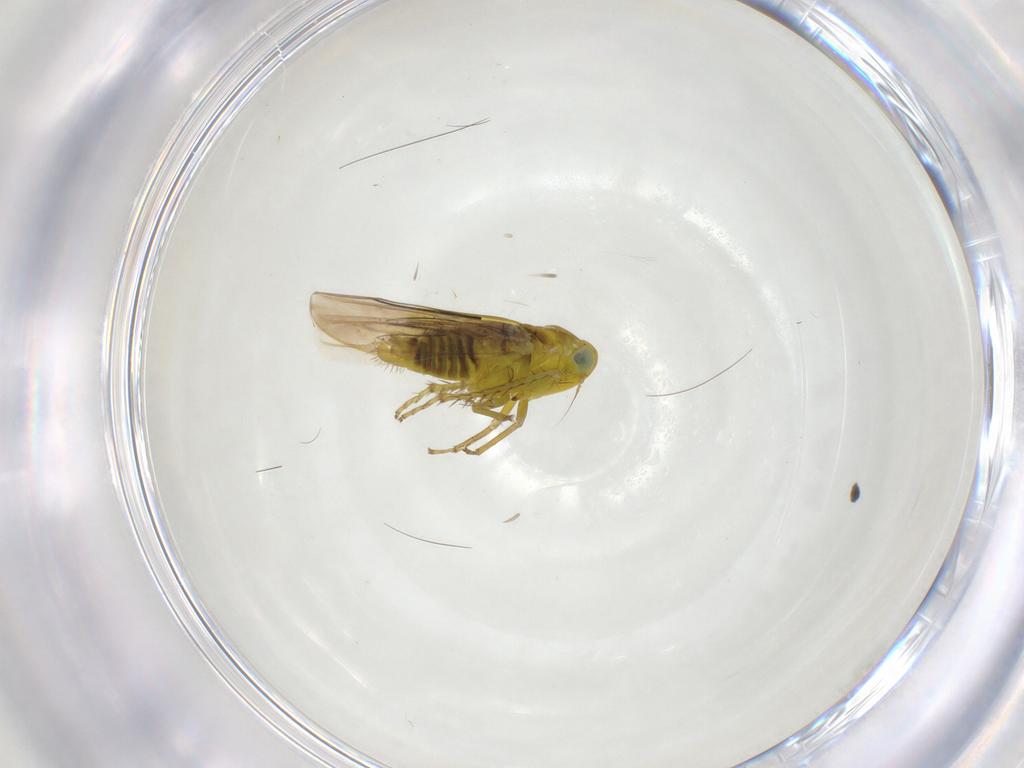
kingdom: Animalia
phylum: Arthropoda
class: Insecta
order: Hemiptera
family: Cicadellidae
